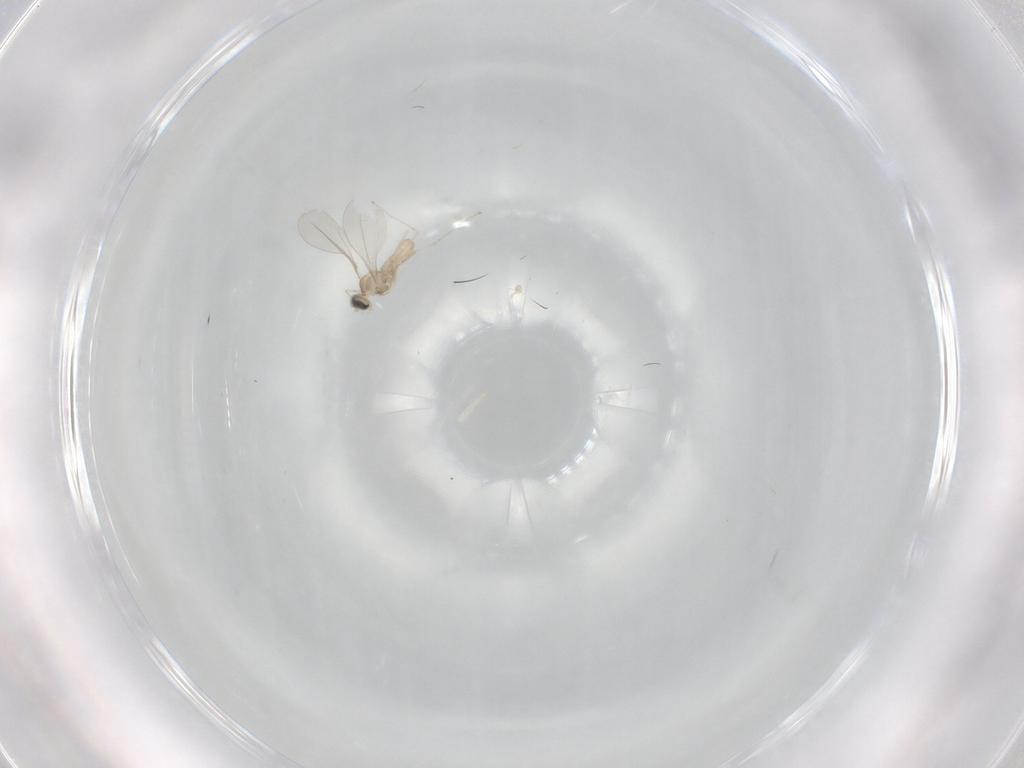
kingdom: Animalia
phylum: Arthropoda
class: Insecta
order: Diptera
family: Cecidomyiidae
